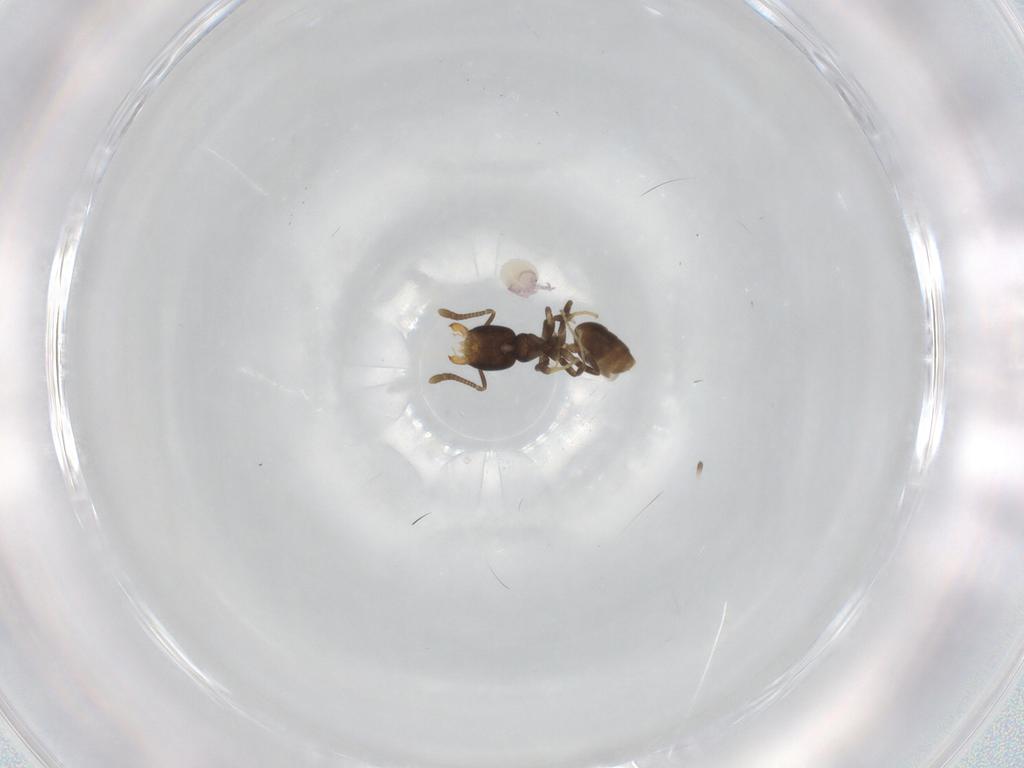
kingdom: Animalia
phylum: Arthropoda
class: Insecta
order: Hymenoptera
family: Formicidae
